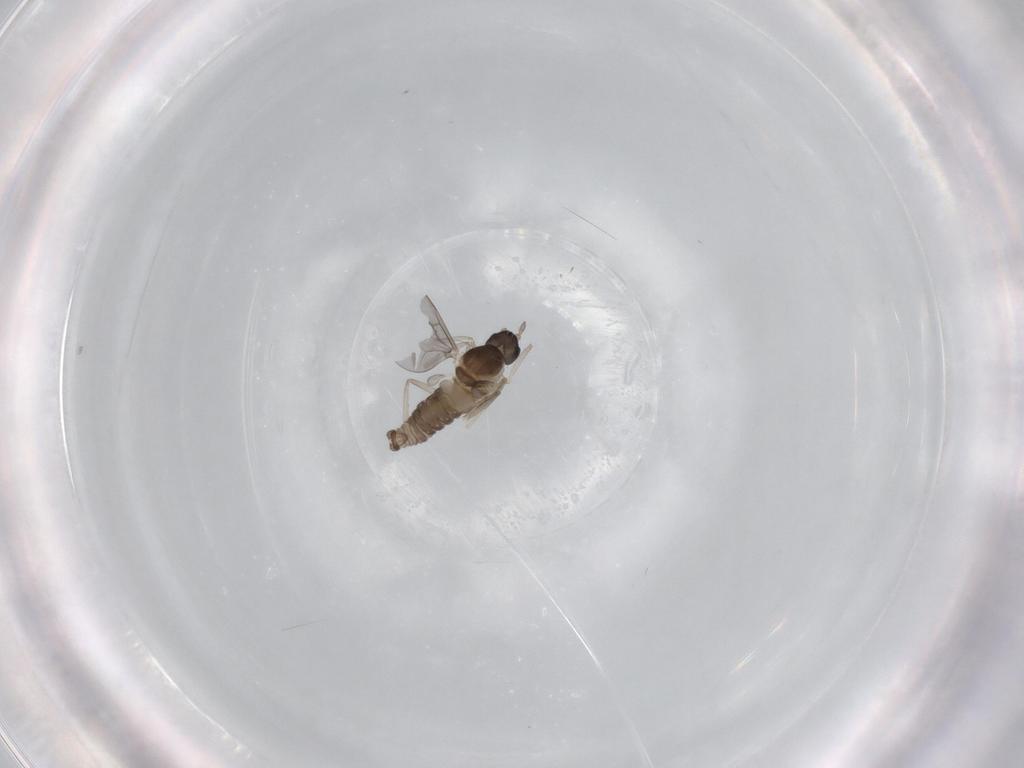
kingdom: Animalia
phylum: Arthropoda
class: Insecta
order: Diptera
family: Cecidomyiidae
